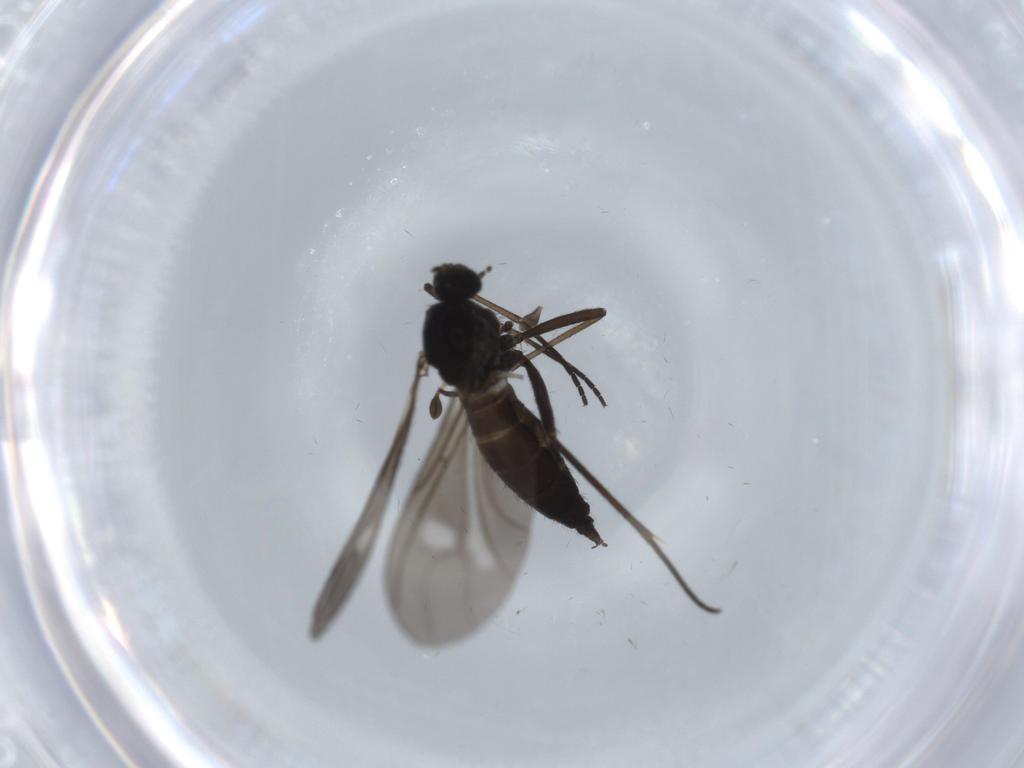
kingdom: Animalia
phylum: Arthropoda
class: Insecta
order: Diptera
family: Sciaridae
